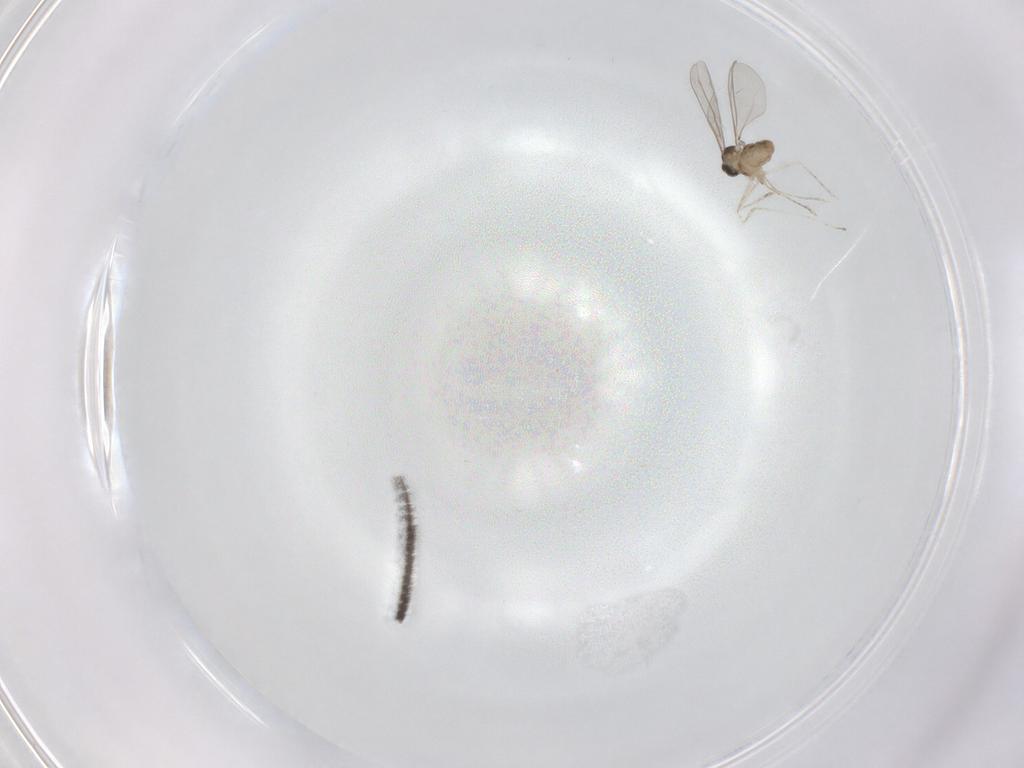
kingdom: Animalia
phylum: Arthropoda
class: Insecta
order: Diptera
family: Sciaridae
